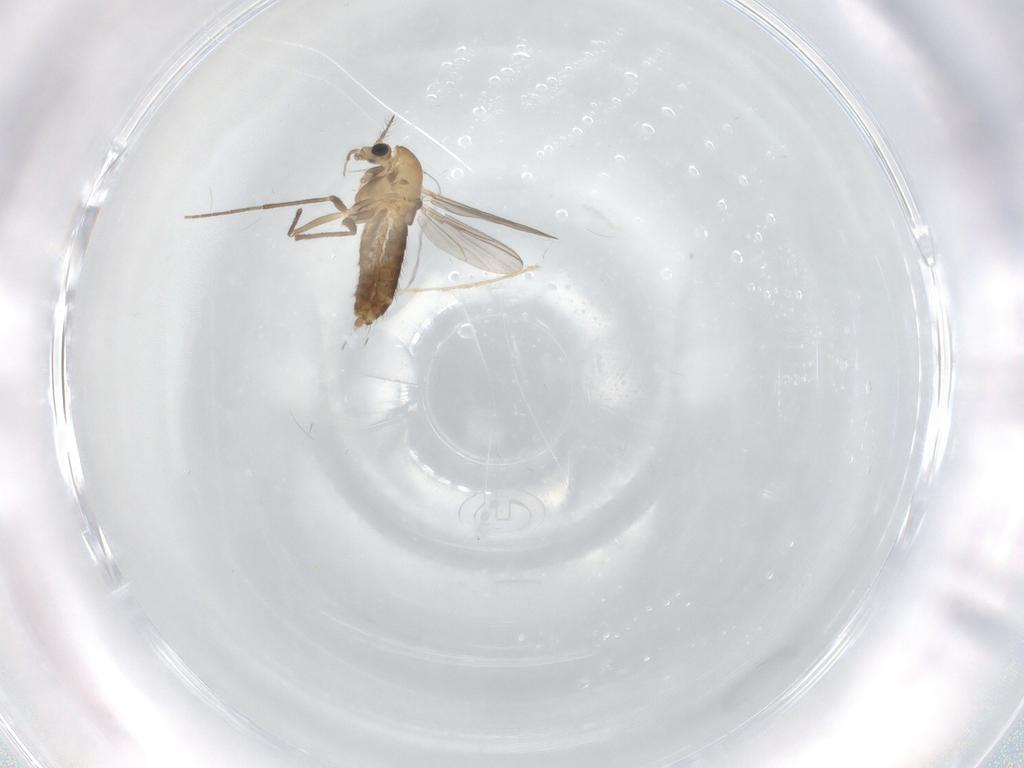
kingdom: Animalia
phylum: Arthropoda
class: Insecta
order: Diptera
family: Chironomidae
